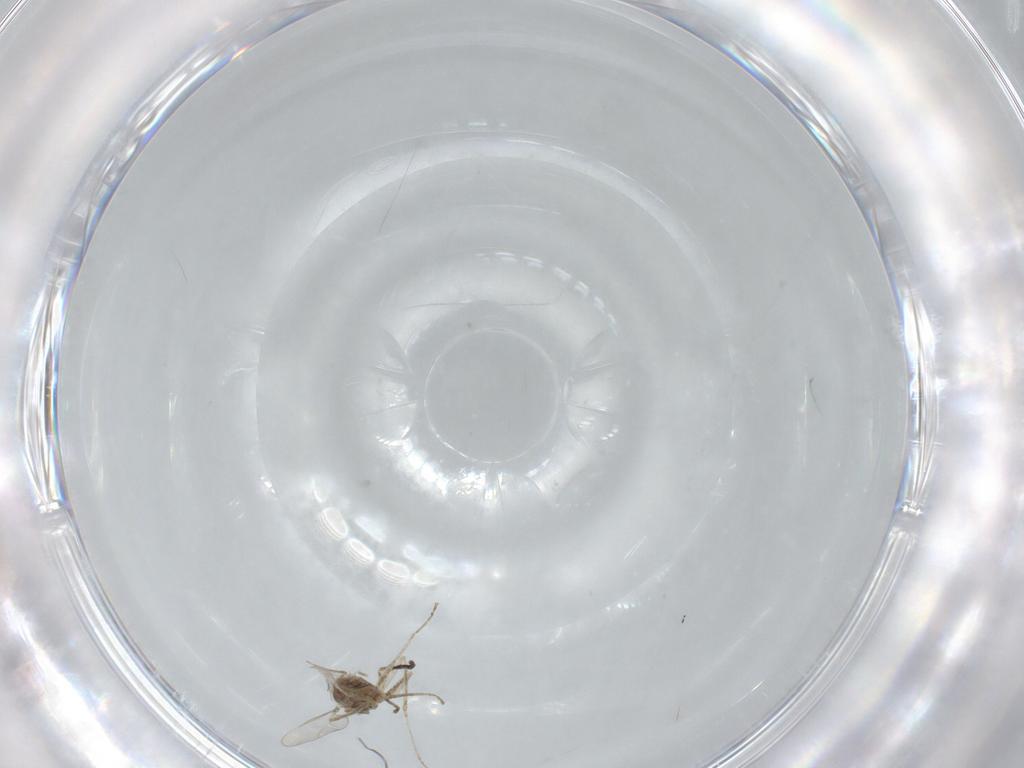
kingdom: Animalia
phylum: Arthropoda
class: Insecta
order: Diptera
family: Cecidomyiidae
